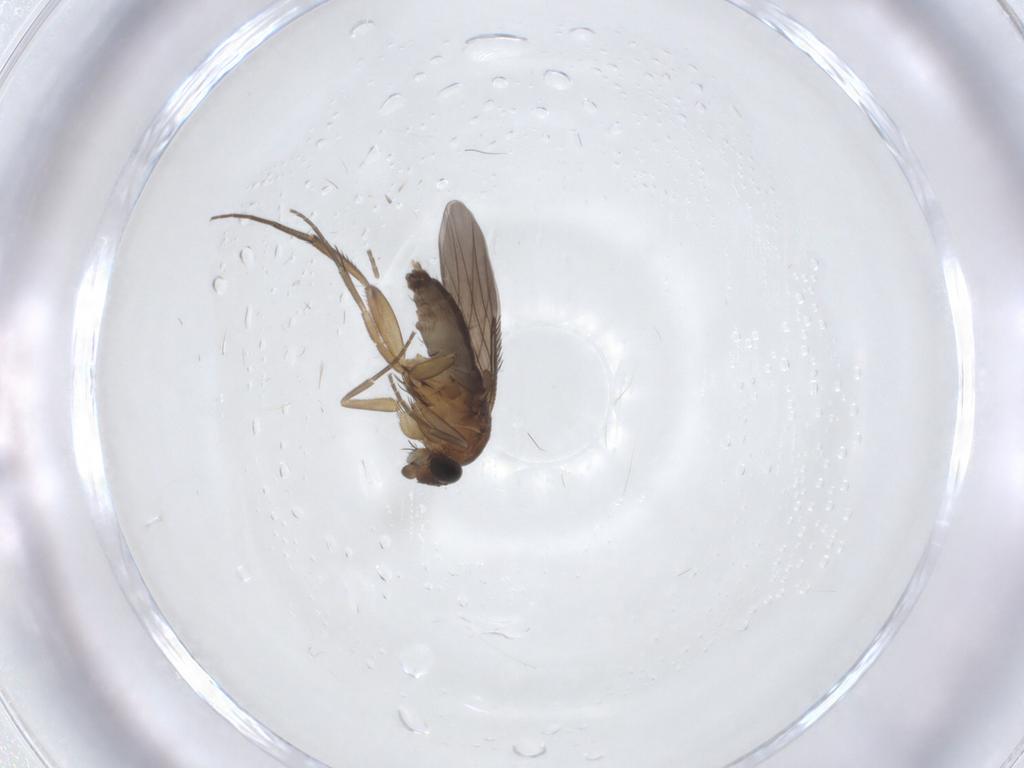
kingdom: Animalia
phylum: Arthropoda
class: Insecta
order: Diptera
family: Phoridae
